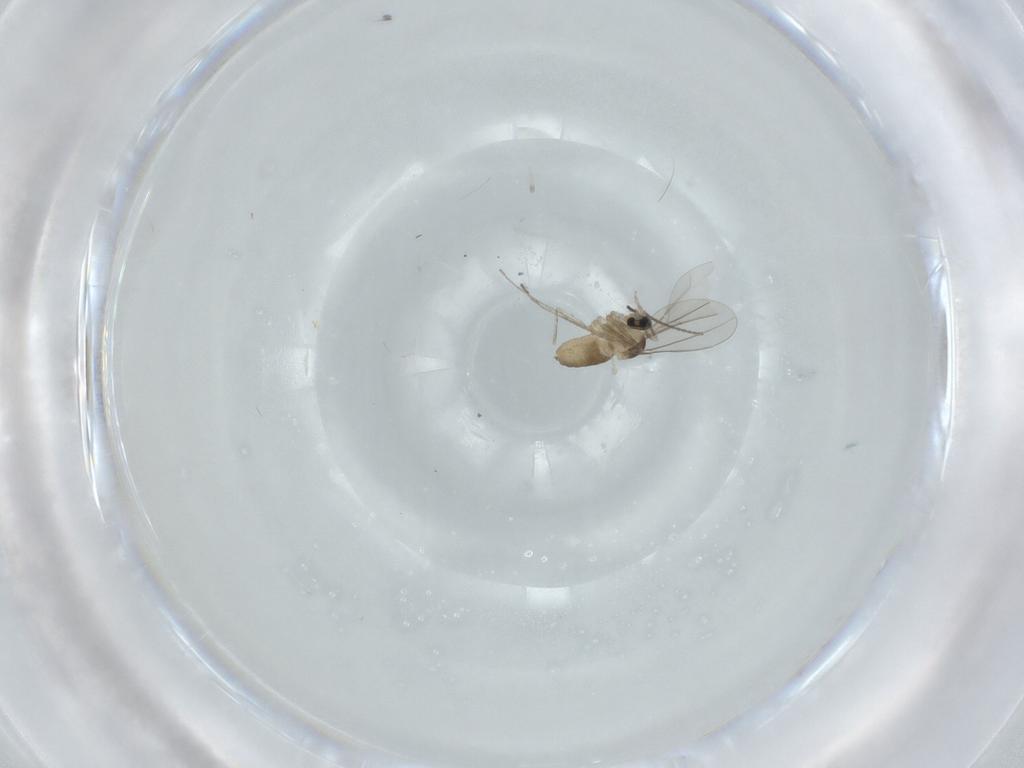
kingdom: Animalia
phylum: Arthropoda
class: Insecta
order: Diptera
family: Cecidomyiidae
